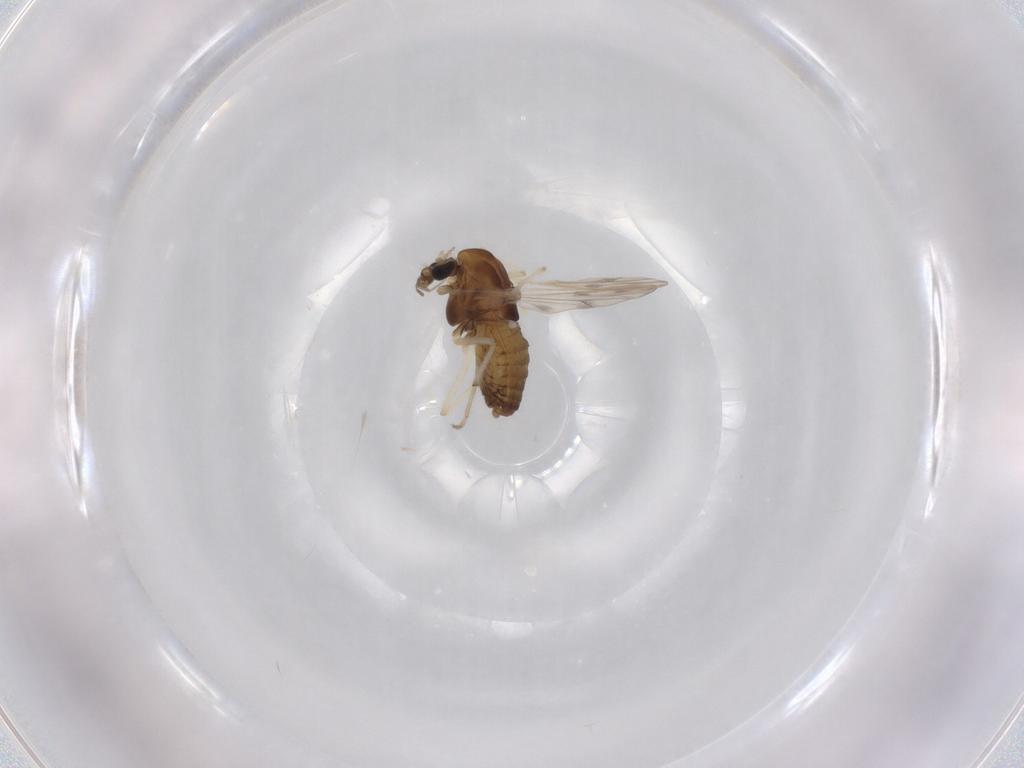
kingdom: Animalia
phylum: Arthropoda
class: Insecta
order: Diptera
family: Chironomidae
